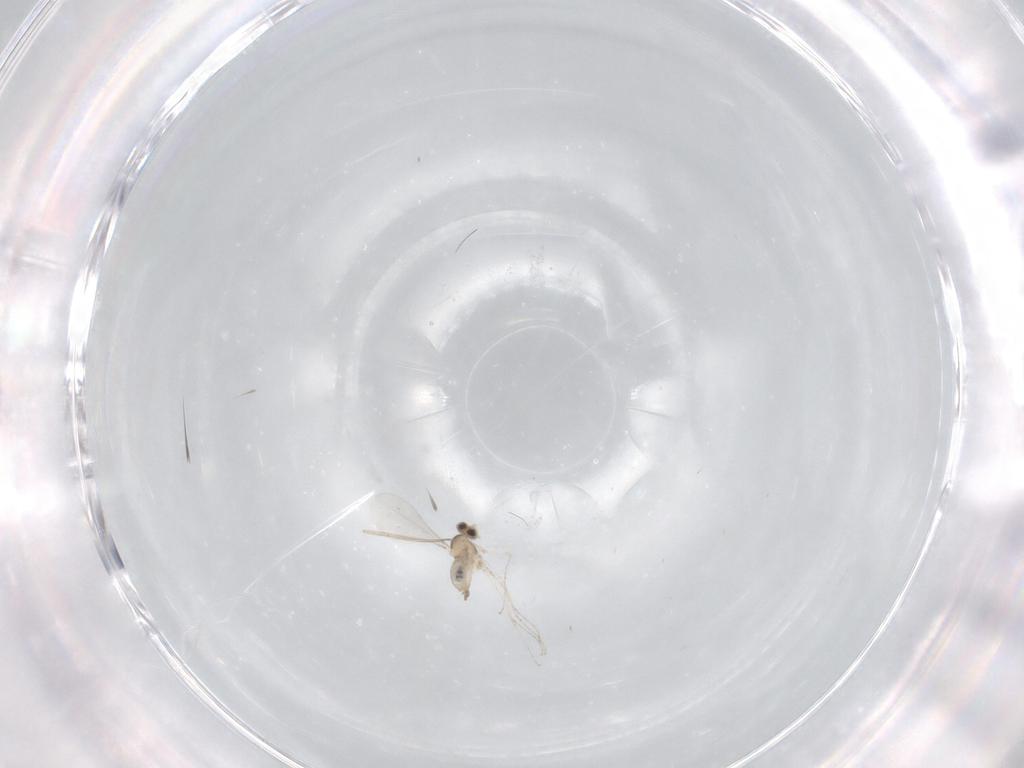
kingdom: Animalia
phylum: Arthropoda
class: Insecta
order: Diptera
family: Cecidomyiidae
